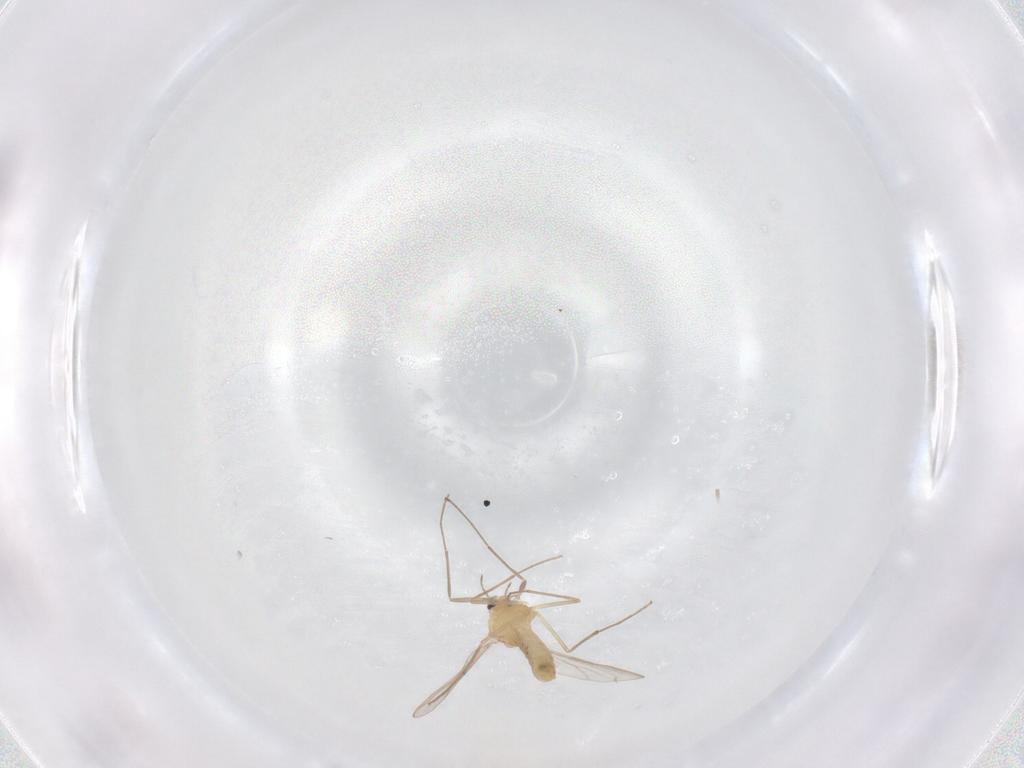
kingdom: Animalia
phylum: Arthropoda
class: Insecta
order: Diptera
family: Chironomidae
